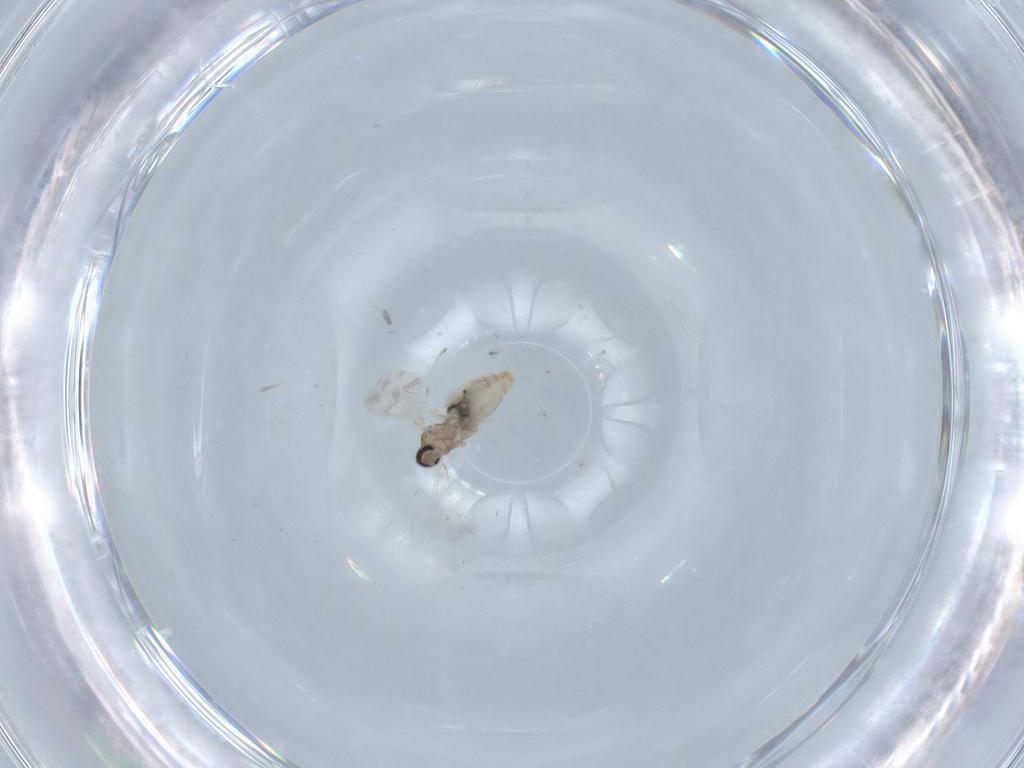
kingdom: Animalia
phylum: Arthropoda
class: Insecta
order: Diptera
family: Cecidomyiidae
